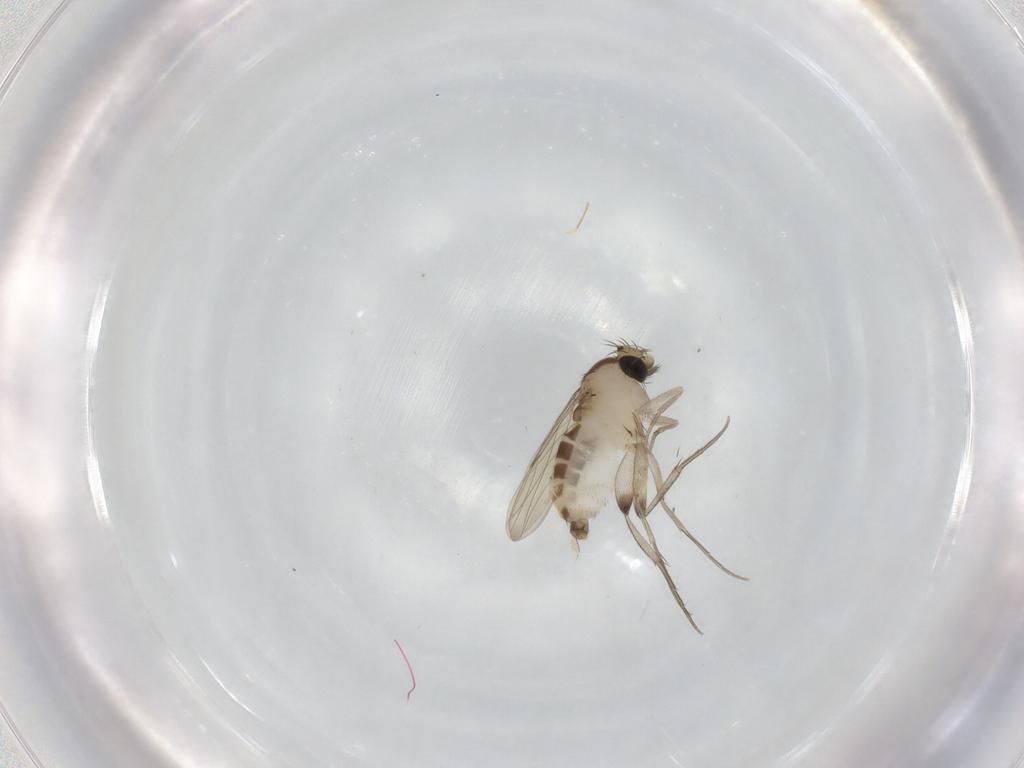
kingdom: Animalia
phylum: Arthropoda
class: Insecta
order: Diptera
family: Phoridae
